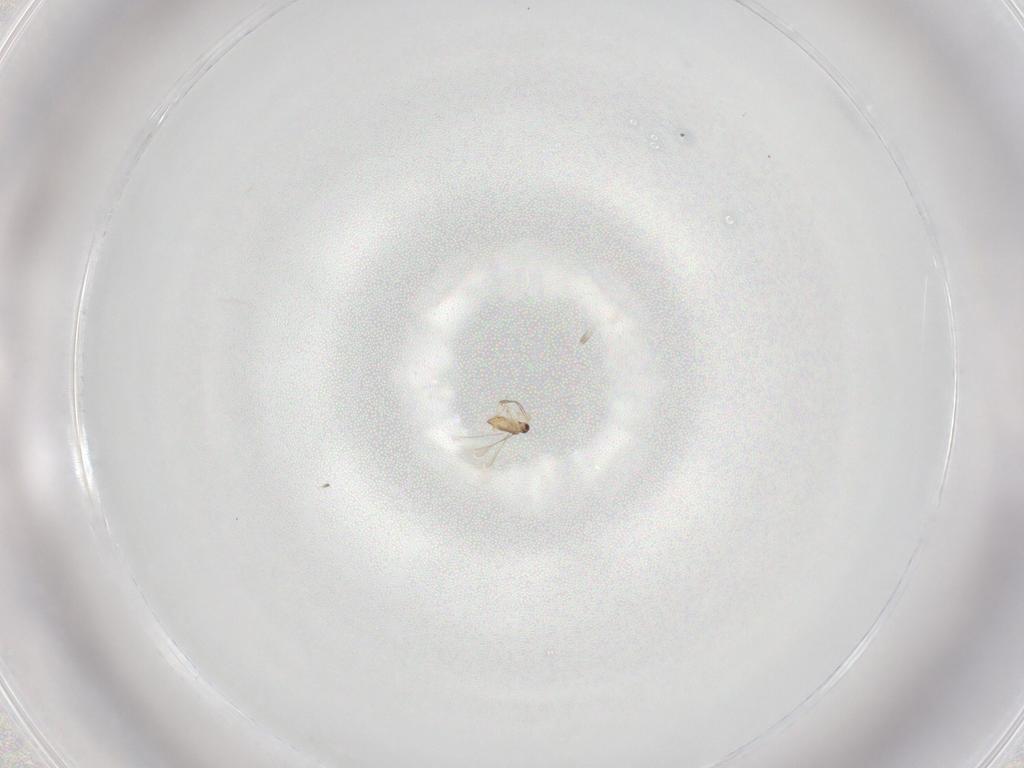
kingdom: Animalia
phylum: Arthropoda
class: Insecta
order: Hymenoptera
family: Mymaridae
